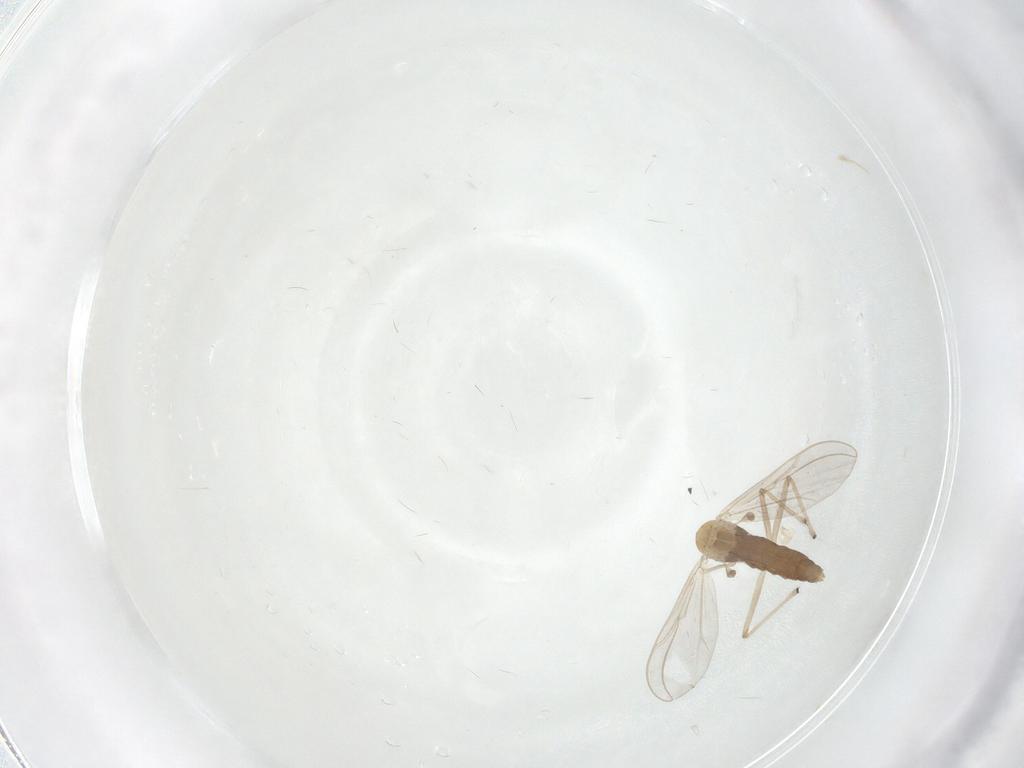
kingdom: Animalia
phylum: Arthropoda
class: Insecta
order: Diptera
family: Chironomidae
